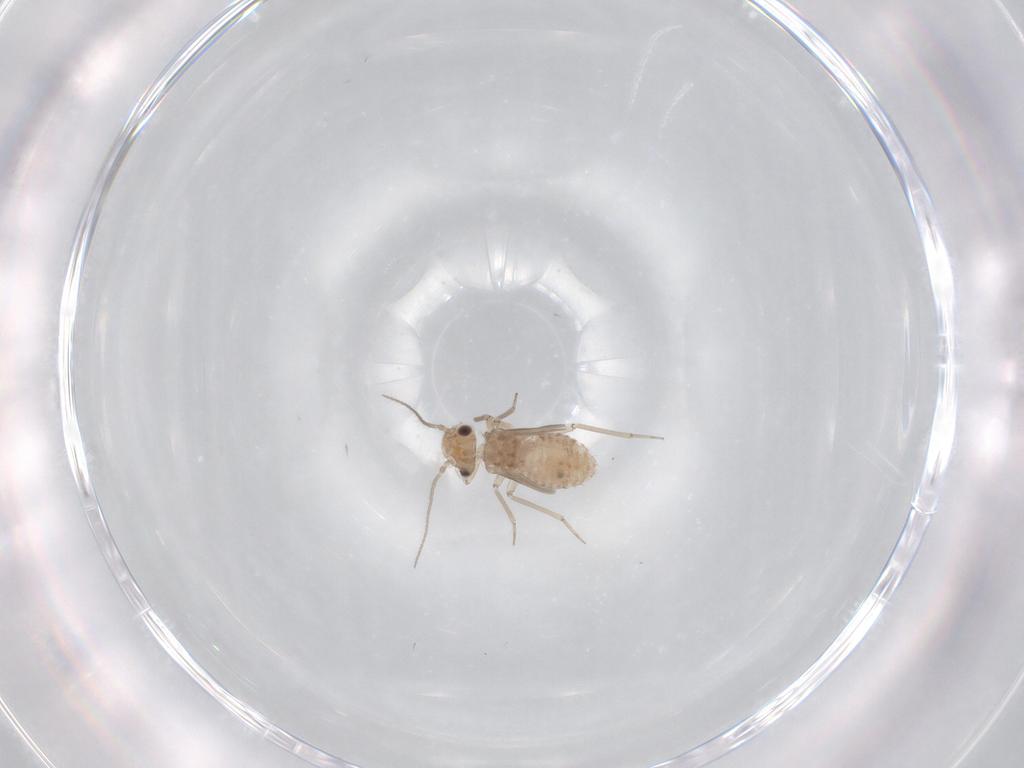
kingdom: Animalia
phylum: Arthropoda
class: Insecta
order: Psocodea
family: Lachesillidae
